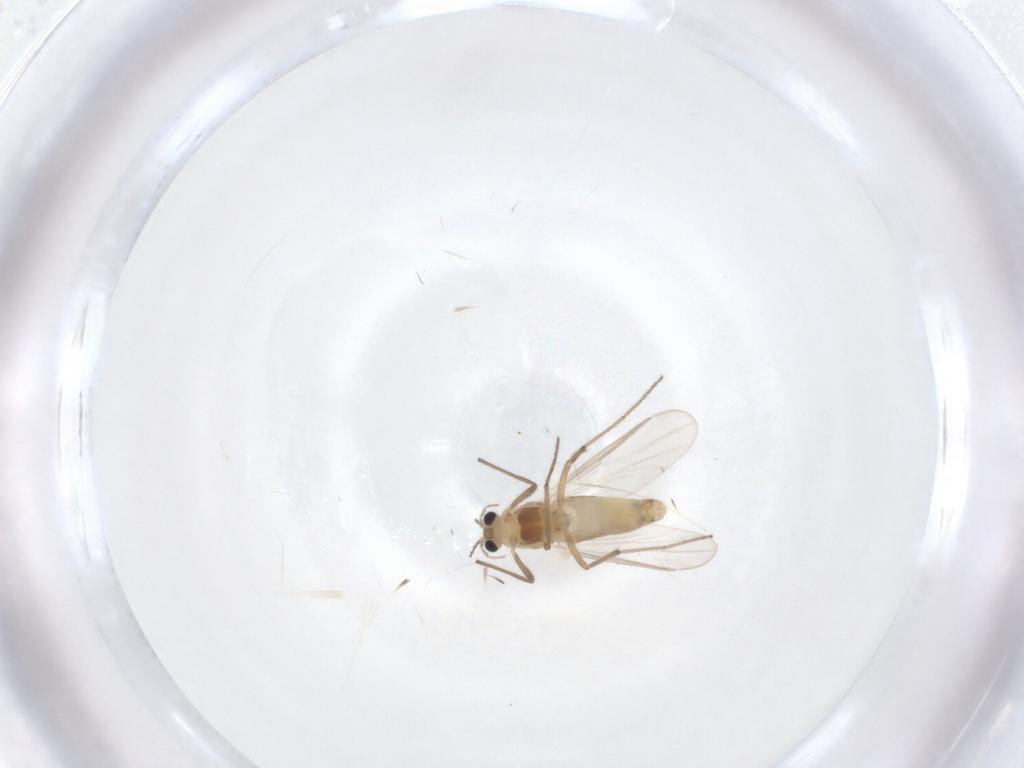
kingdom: Animalia
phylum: Arthropoda
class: Insecta
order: Diptera
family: Chironomidae
